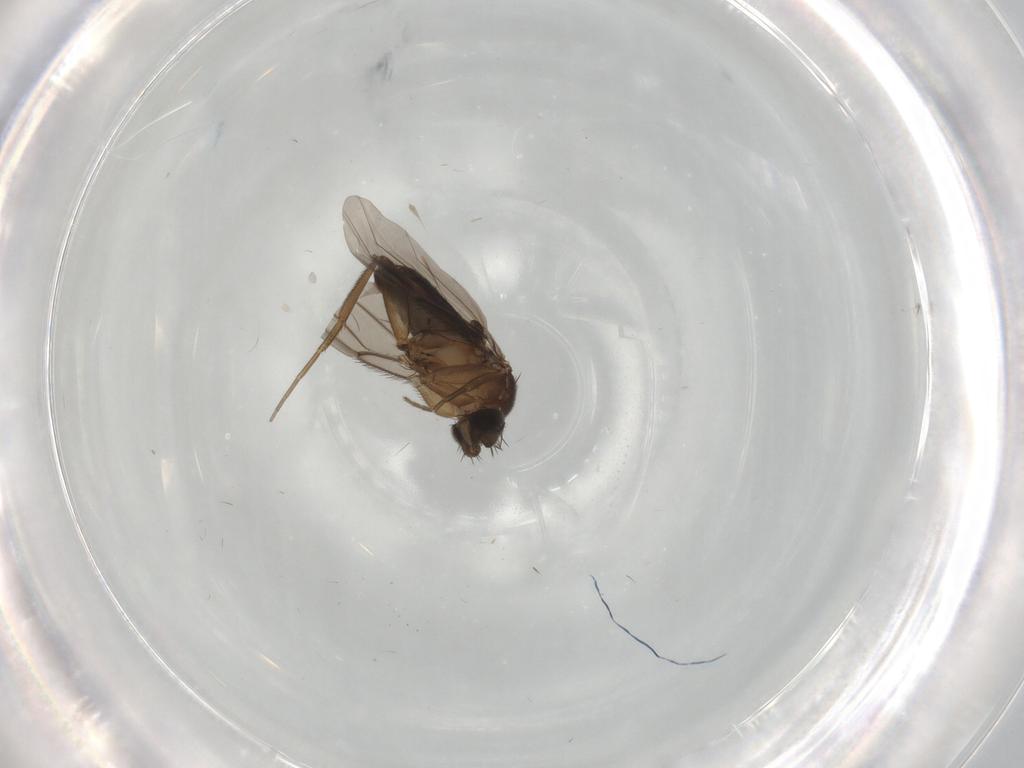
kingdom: Animalia
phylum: Arthropoda
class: Insecta
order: Diptera
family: Phoridae
